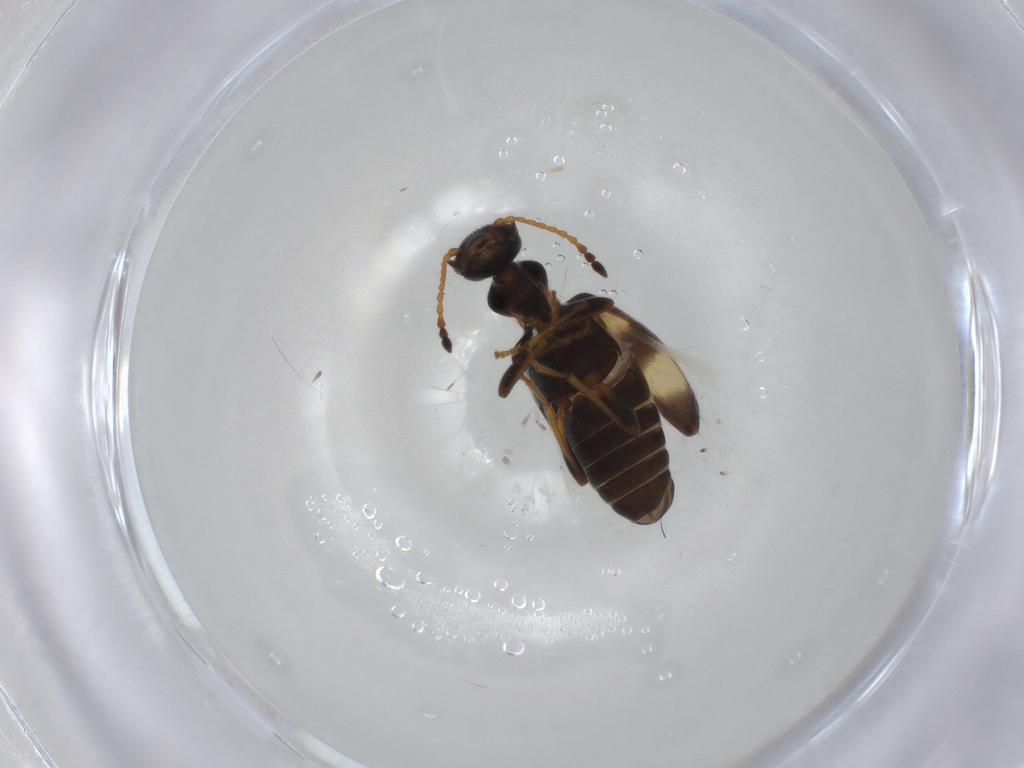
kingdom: Animalia
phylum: Arthropoda
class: Insecta
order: Coleoptera
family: Anthicidae
